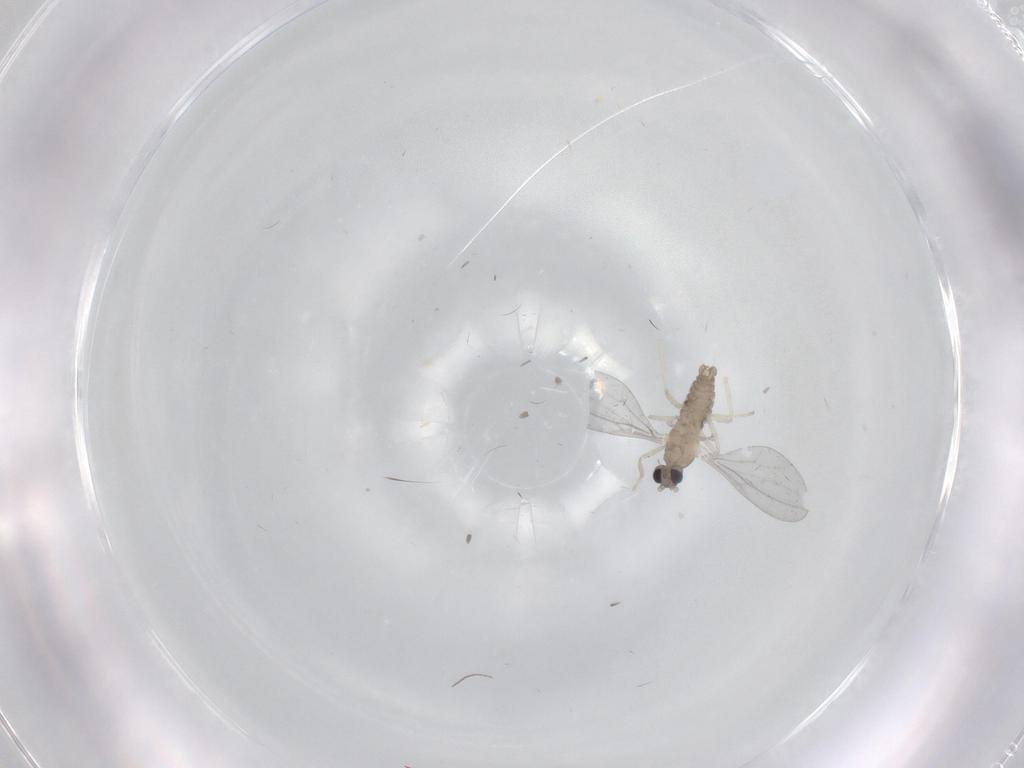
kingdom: Animalia
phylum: Arthropoda
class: Insecta
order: Diptera
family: Cecidomyiidae
